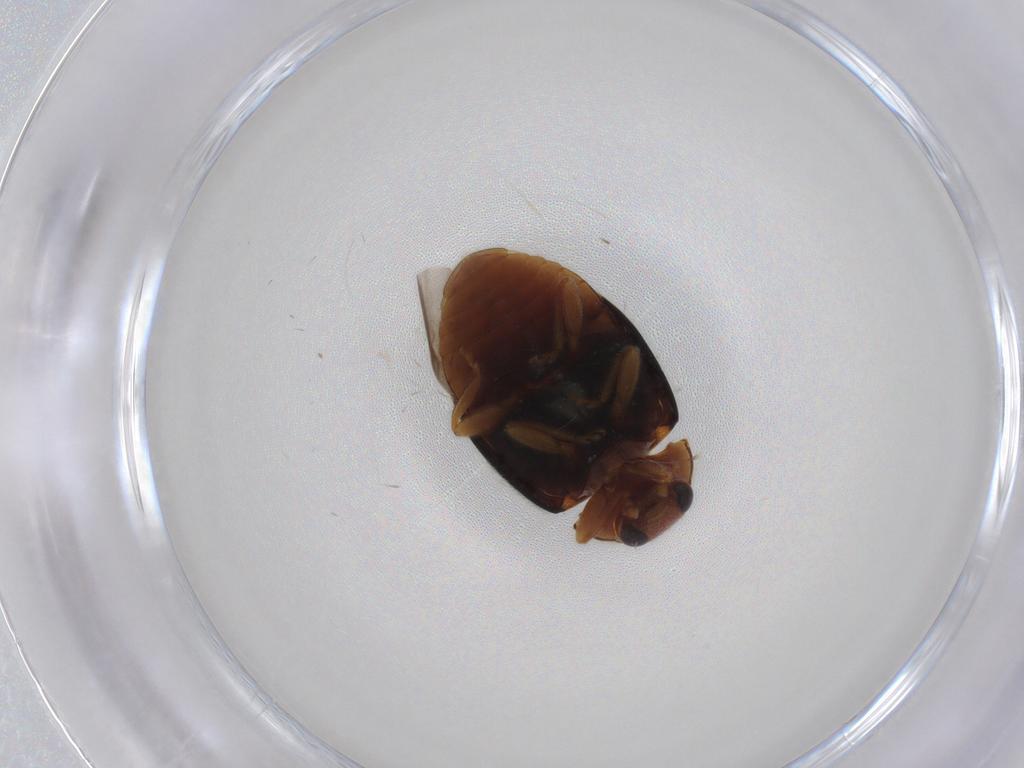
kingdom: Animalia
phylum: Arthropoda
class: Insecta
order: Coleoptera
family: Coccinellidae
